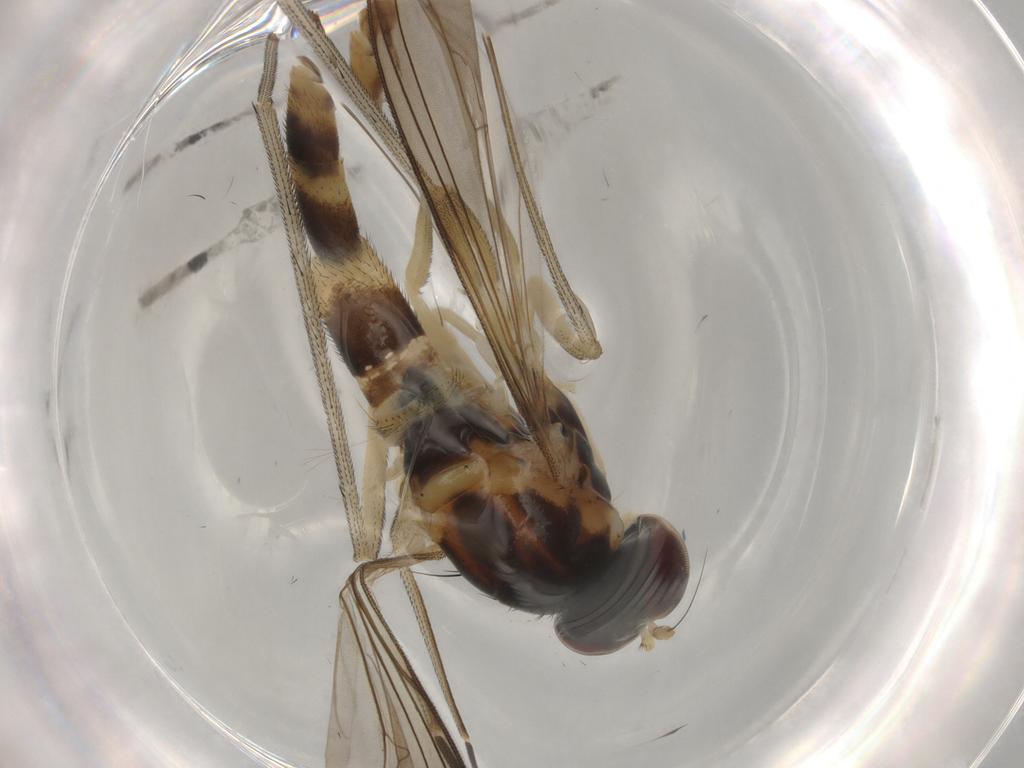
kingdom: Animalia
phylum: Arthropoda
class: Insecta
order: Diptera
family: Cecidomyiidae
